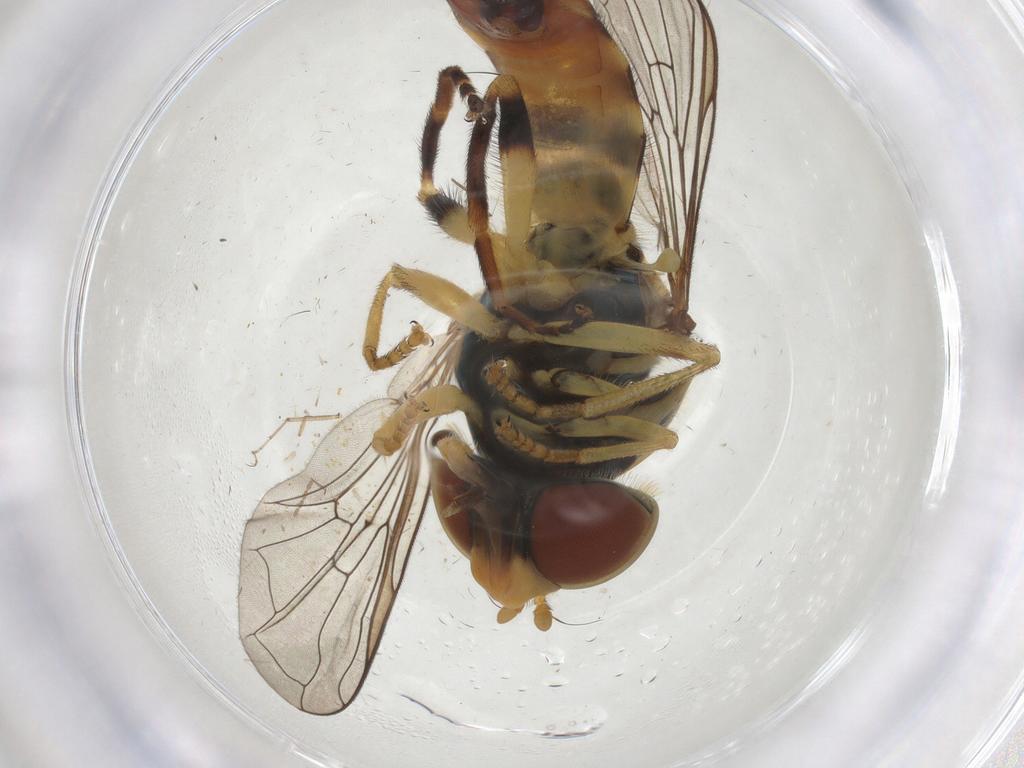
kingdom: Animalia
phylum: Arthropoda
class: Insecta
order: Diptera
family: Syrphidae
